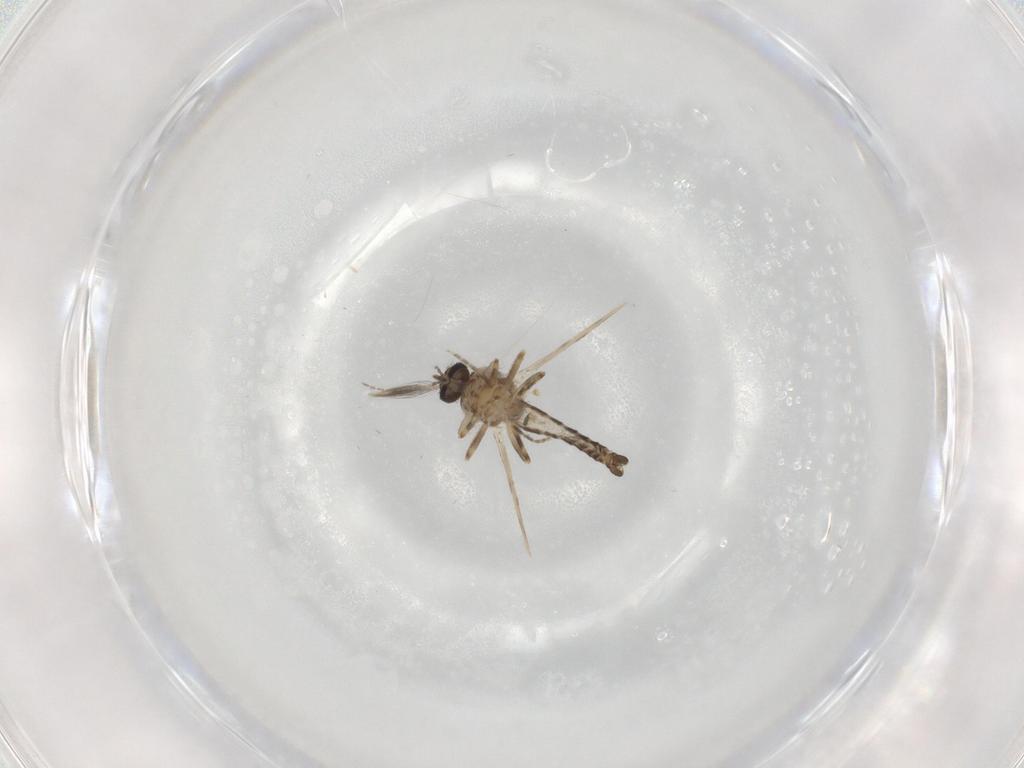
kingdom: Animalia
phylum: Arthropoda
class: Insecta
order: Diptera
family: Ceratopogonidae
